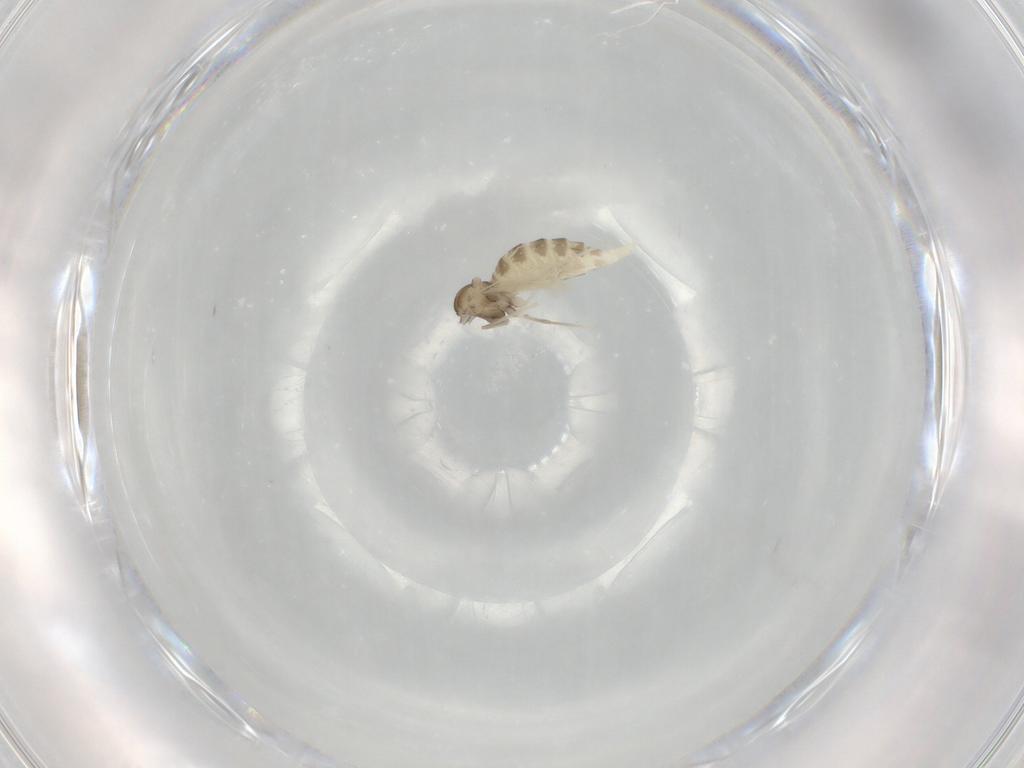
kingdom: Animalia
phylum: Arthropoda
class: Insecta
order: Diptera
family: Cecidomyiidae
